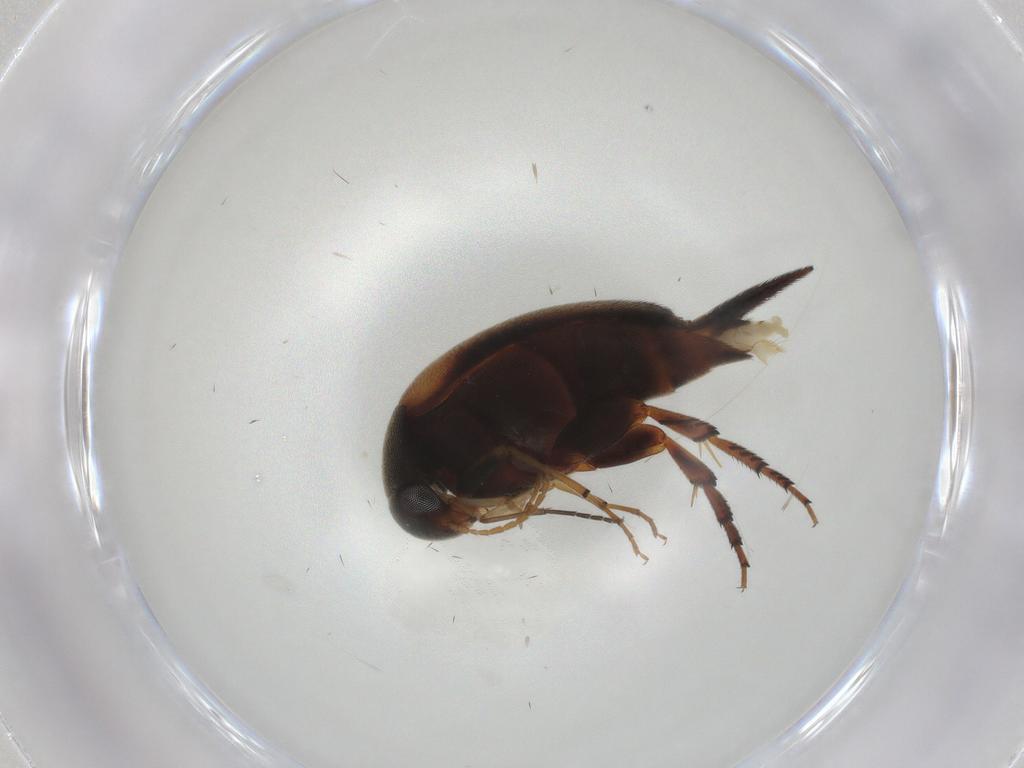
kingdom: Animalia
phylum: Arthropoda
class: Insecta
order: Coleoptera
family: Mordellidae
